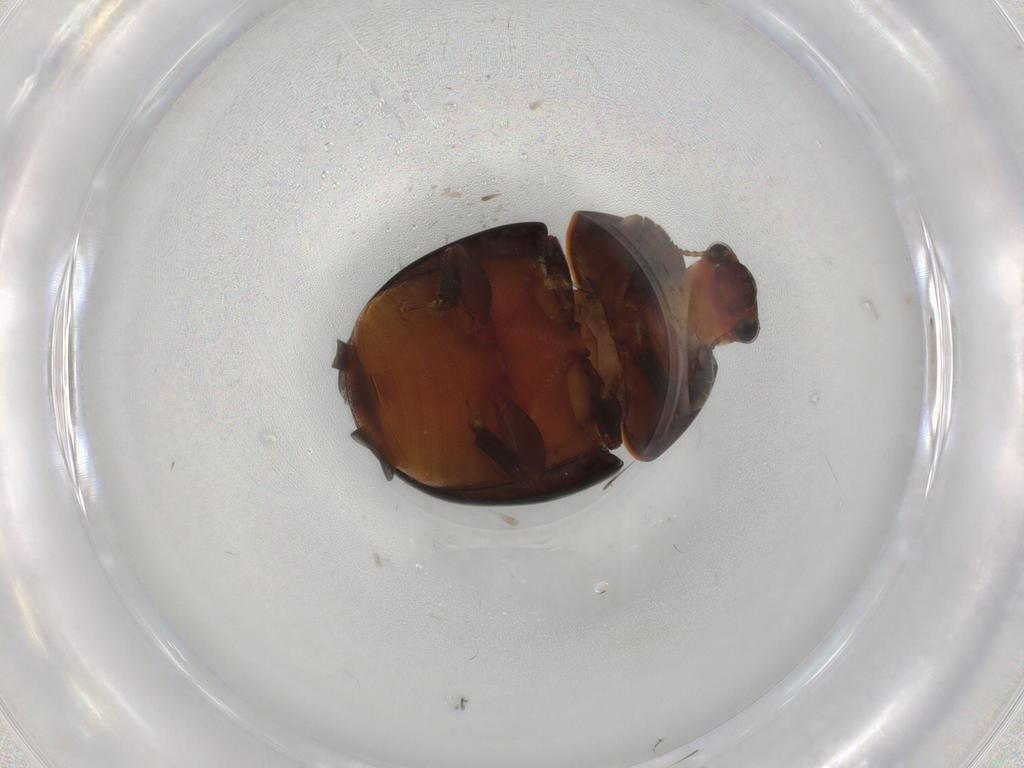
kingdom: Animalia
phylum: Arthropoda
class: Insecta
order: Coleoptera
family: Nitidulidae
